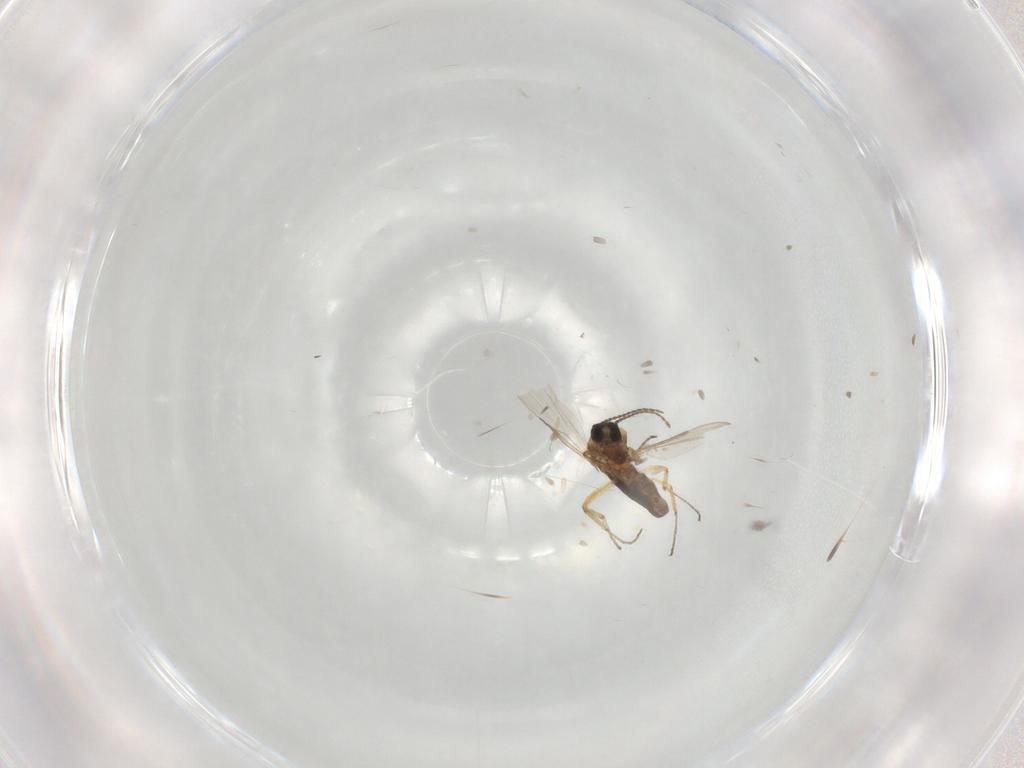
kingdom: Animalia
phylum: Arthropoda
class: Insecta
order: Diptera
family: Ceratopogonidae
